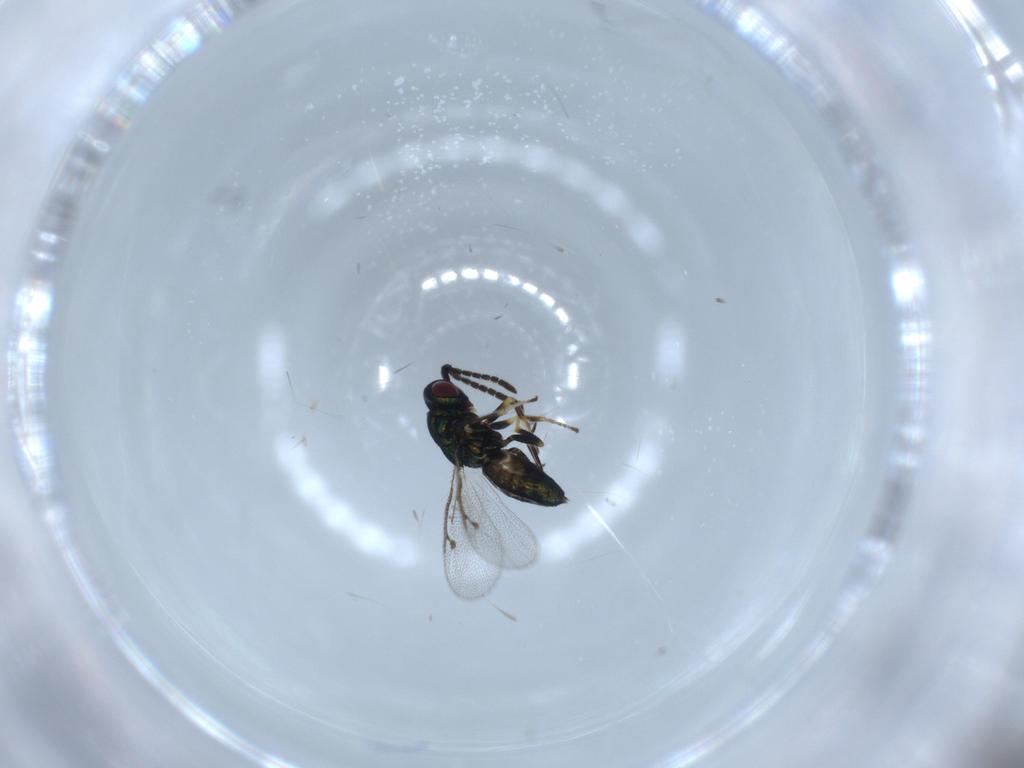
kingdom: Animalia
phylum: Arthropoda
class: Insecta
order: Hymenoptera
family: Pteromalidae
